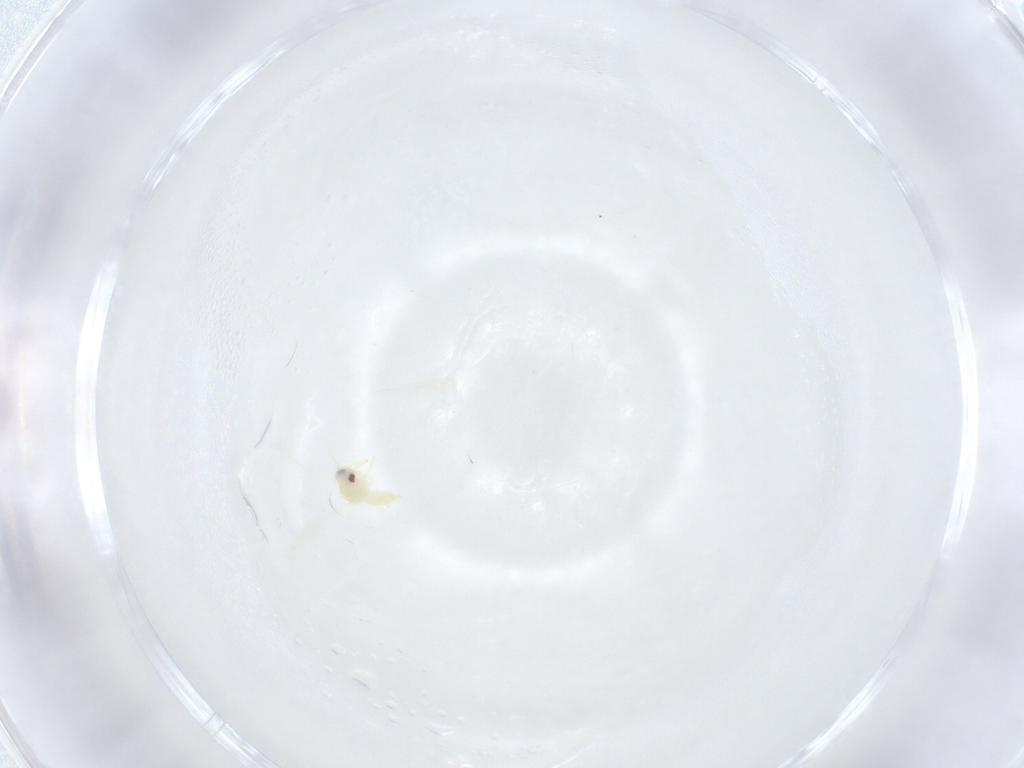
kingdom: Animalia
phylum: Arthropoda
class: Insecta
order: Hemiptera
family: Aleyrodidae
